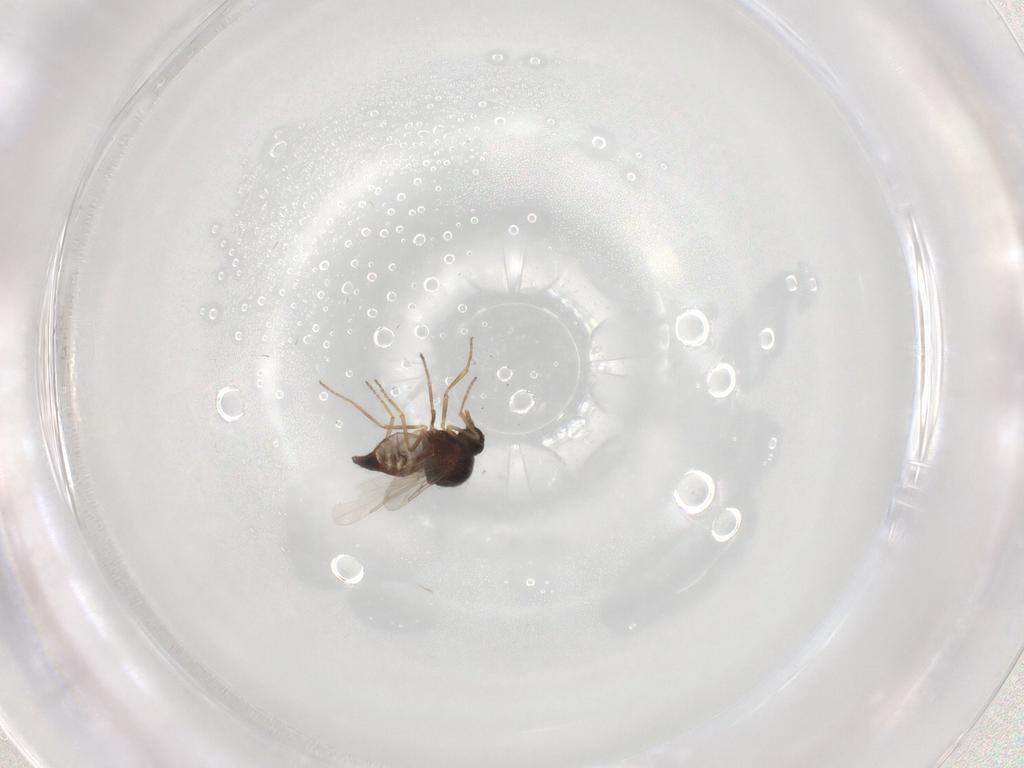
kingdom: Animalia
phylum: Arthropoda
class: Insecta
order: Diptera
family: Ceratopogonidae
